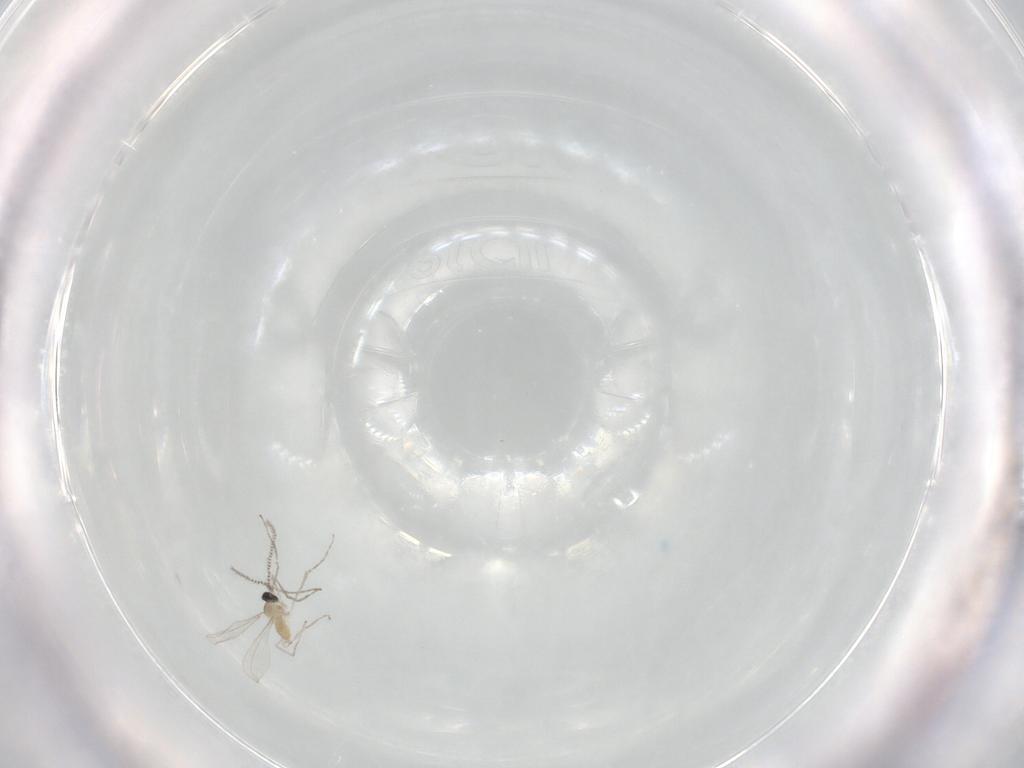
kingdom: Animalia
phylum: Arthropoda
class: Insecta
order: Diptera
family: Cecidomyiidae
